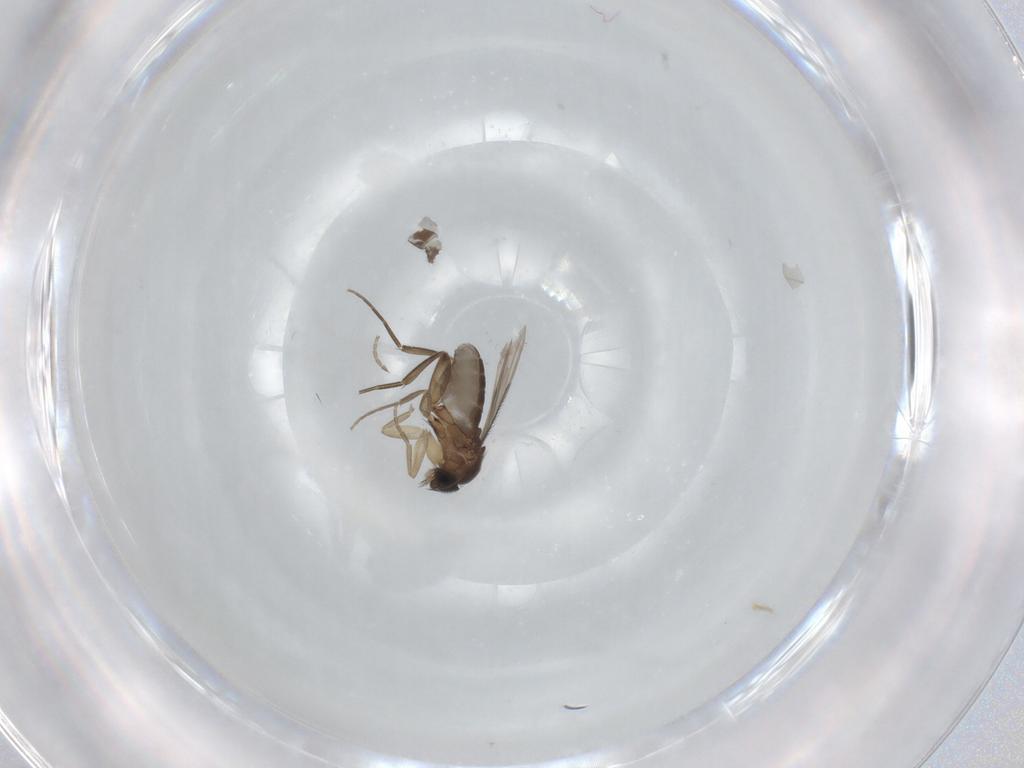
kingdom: Animalia
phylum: Arthropoda
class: Insecta
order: Diptera
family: Phoridae
